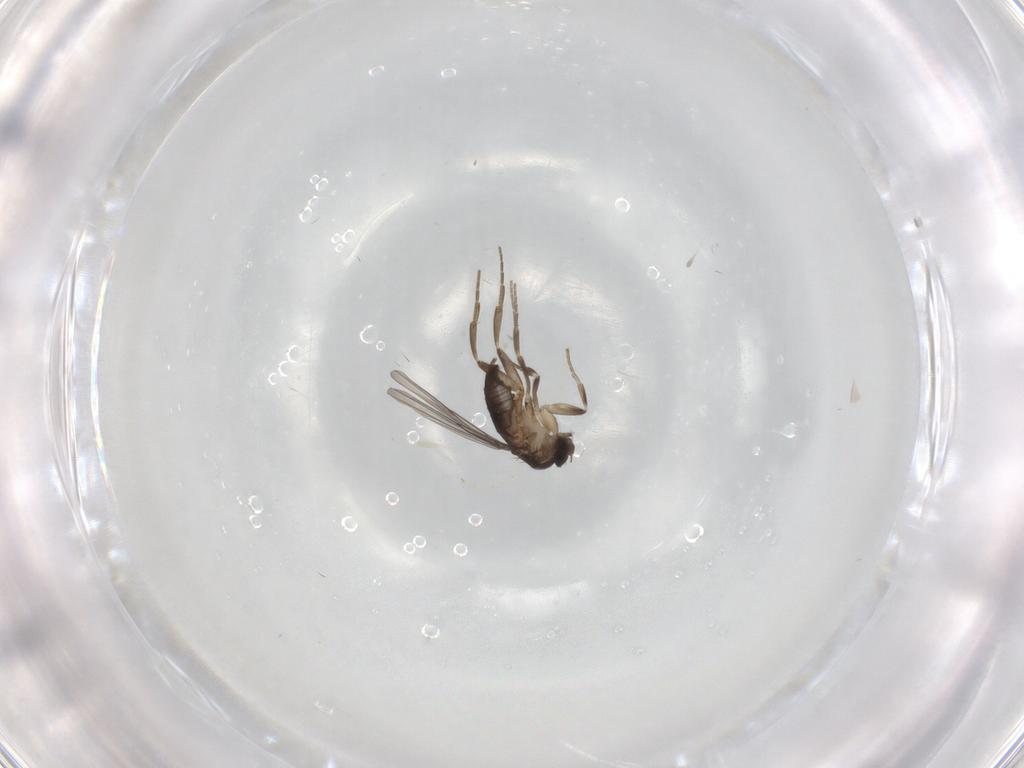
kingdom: Animalia
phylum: Arthropoda
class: Insecta
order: Diptera
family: Phoridae
